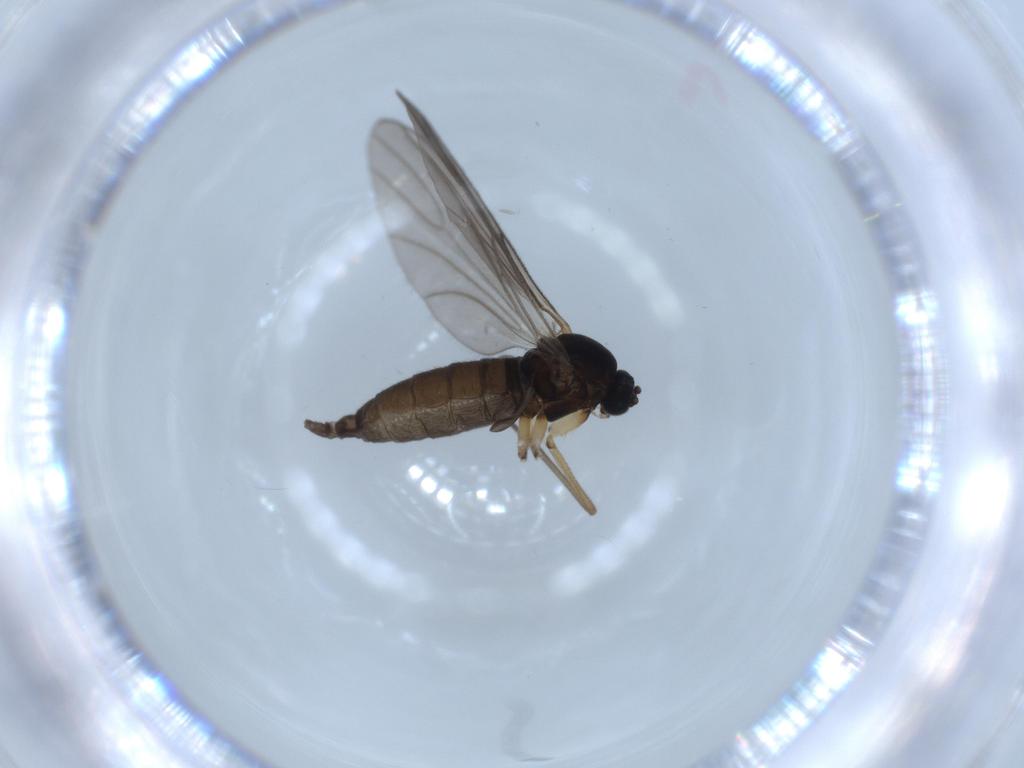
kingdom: Animalia
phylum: Arthropoda
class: Insecta
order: Diptera
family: Sciaridae
